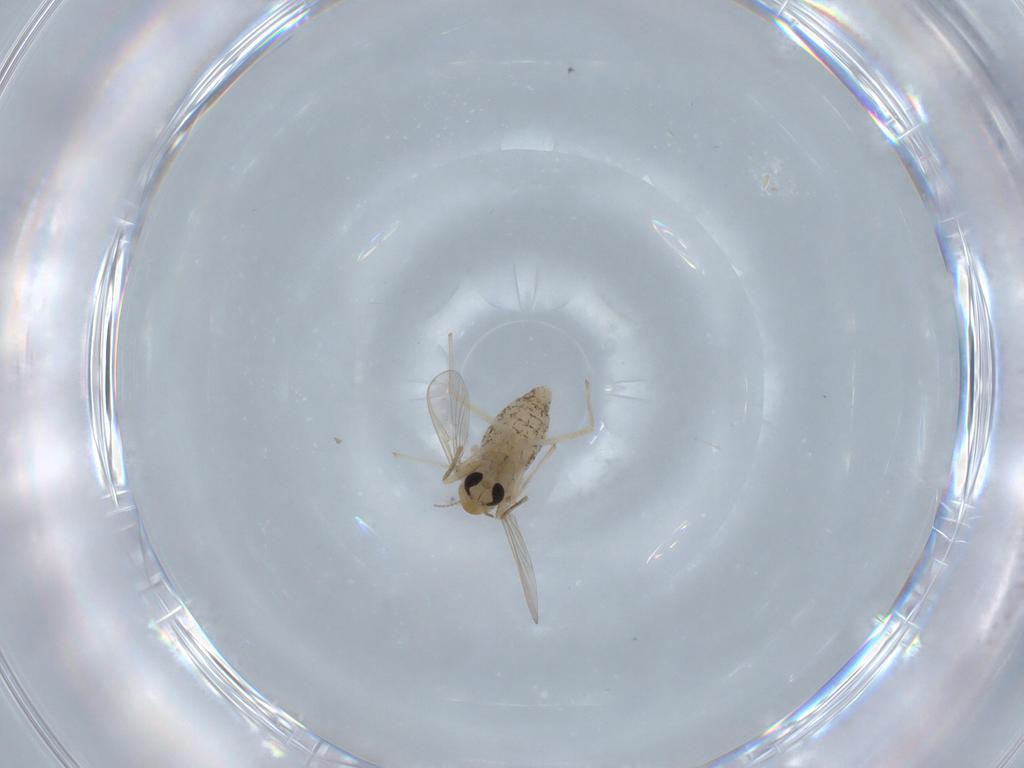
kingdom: Animalia
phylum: Arthropoda
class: Insecta
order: Diptera
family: Chironomidae
